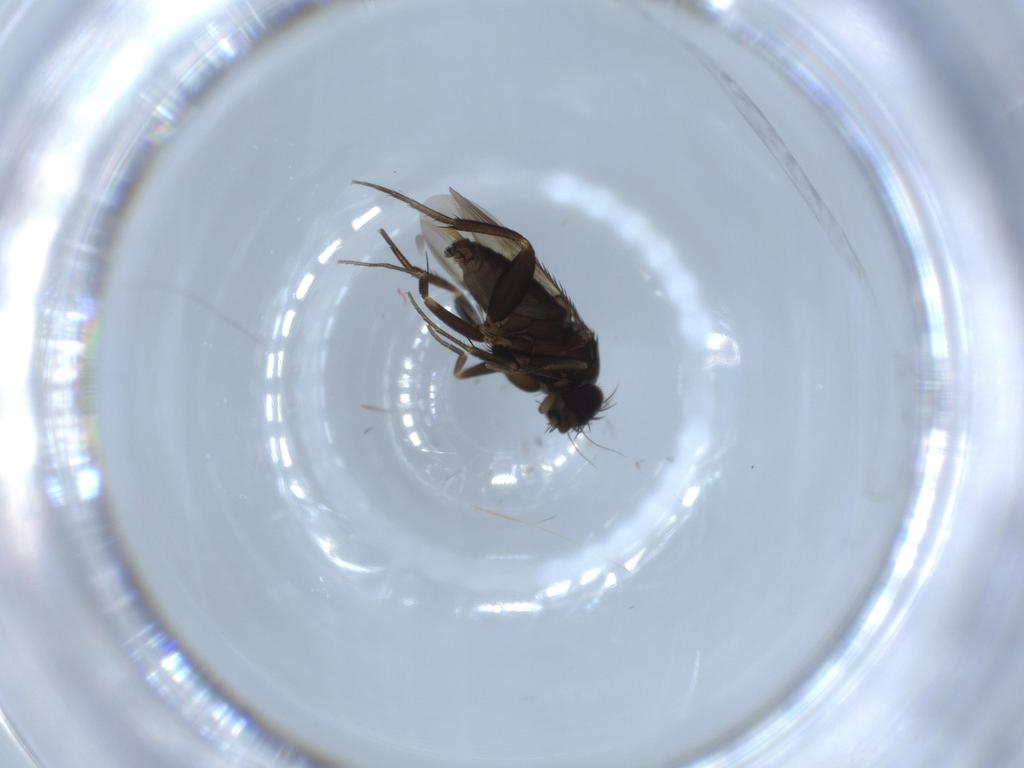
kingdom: Animalia
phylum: Arthropoda
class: Insecta
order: Diptera
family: Phoridae
